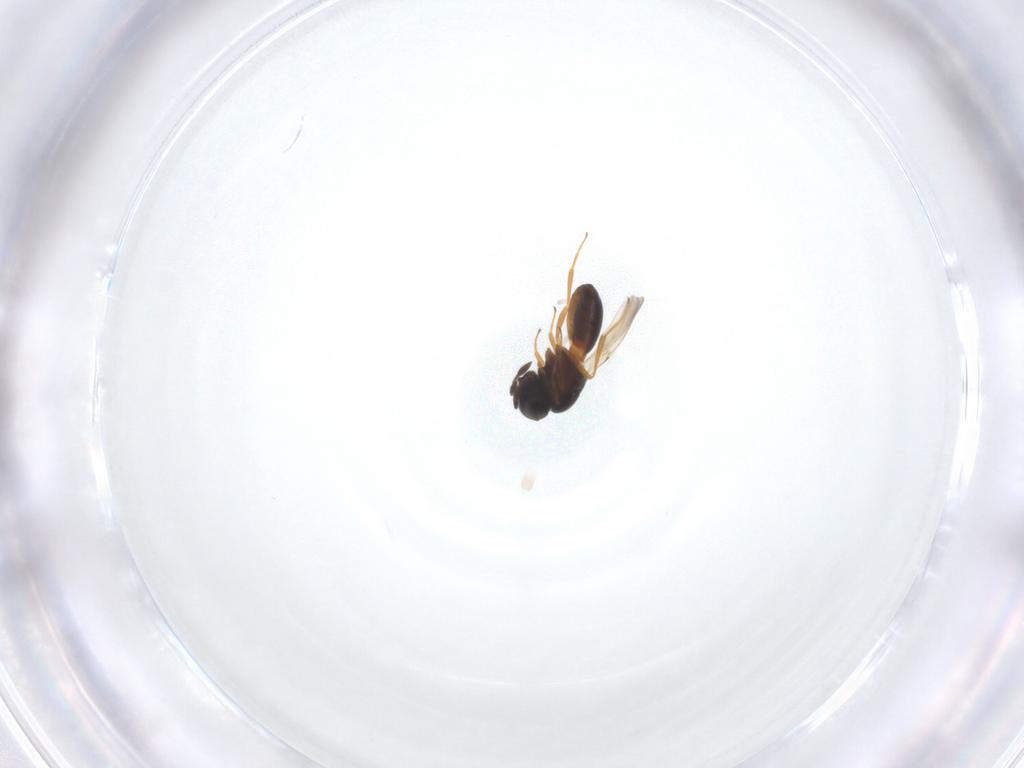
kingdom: Animalia
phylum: Arthropoda
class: Insecta
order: Hymenoptera
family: Scelionidae
